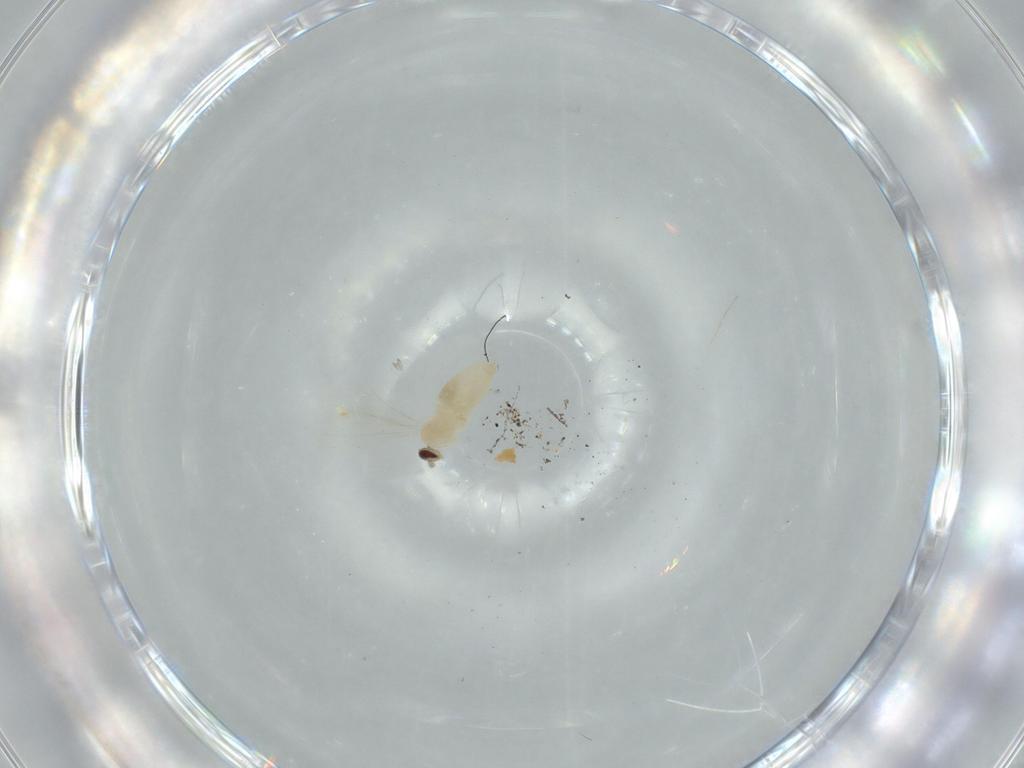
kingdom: Animalia
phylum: Arthropoda
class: Insecta
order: Diptera
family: Cecidomyiidae
